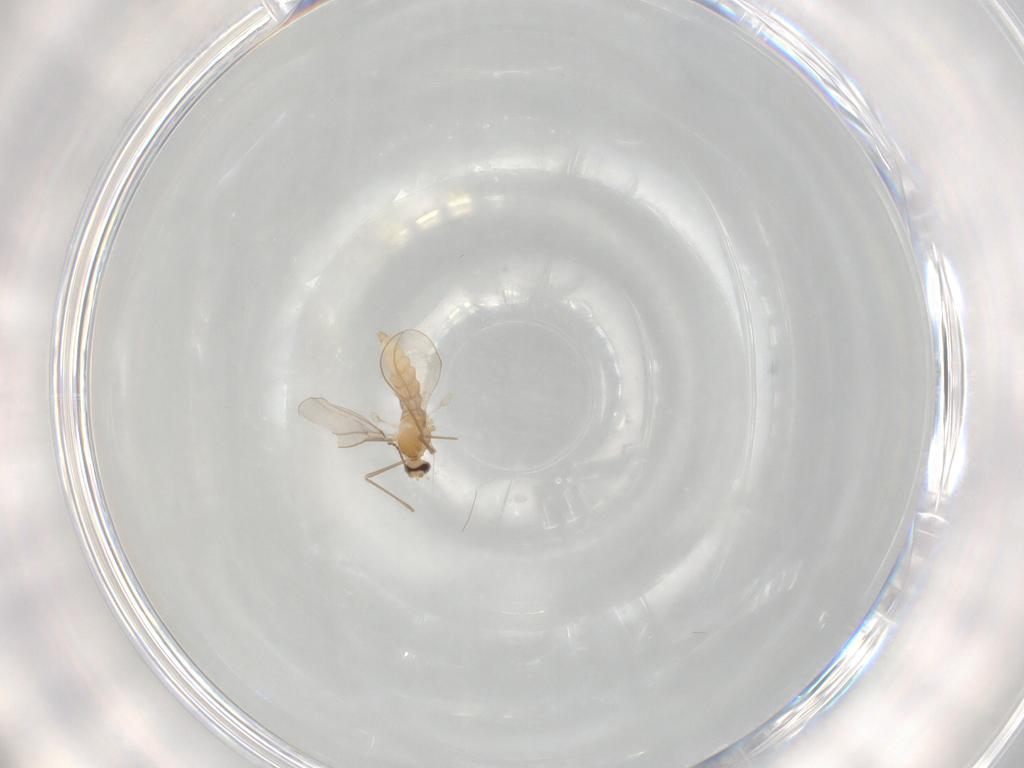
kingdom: Animalia
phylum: Arthropoda
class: Insecta
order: Diptera
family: Cecidomyiidae
